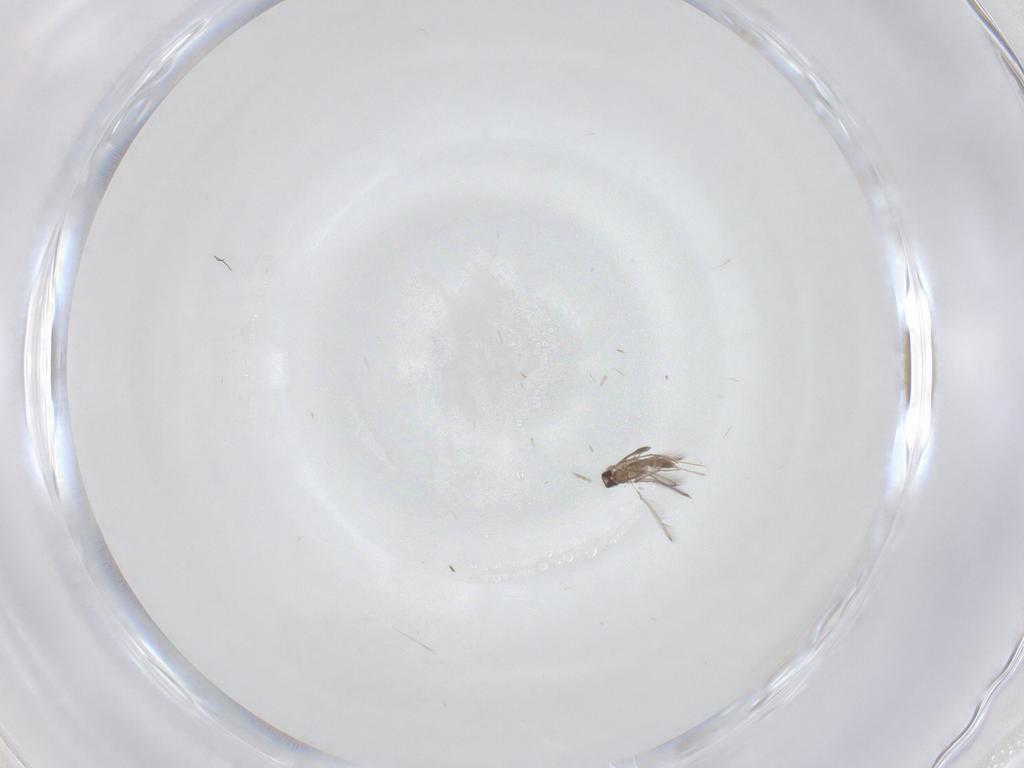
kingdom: Animalia
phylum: Arthropoda
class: Insecta
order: Hymenoptera
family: Mymaridae
